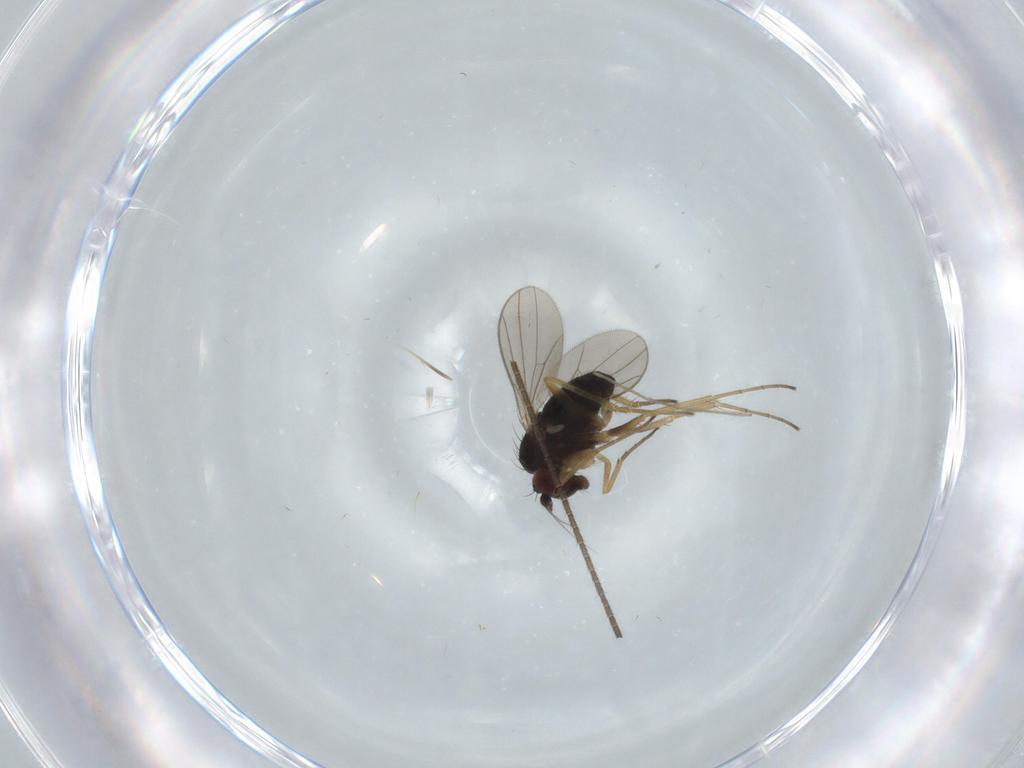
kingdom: Animalia
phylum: Arthropoda
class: Insecta
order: Diptera
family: Dolichopodidae
